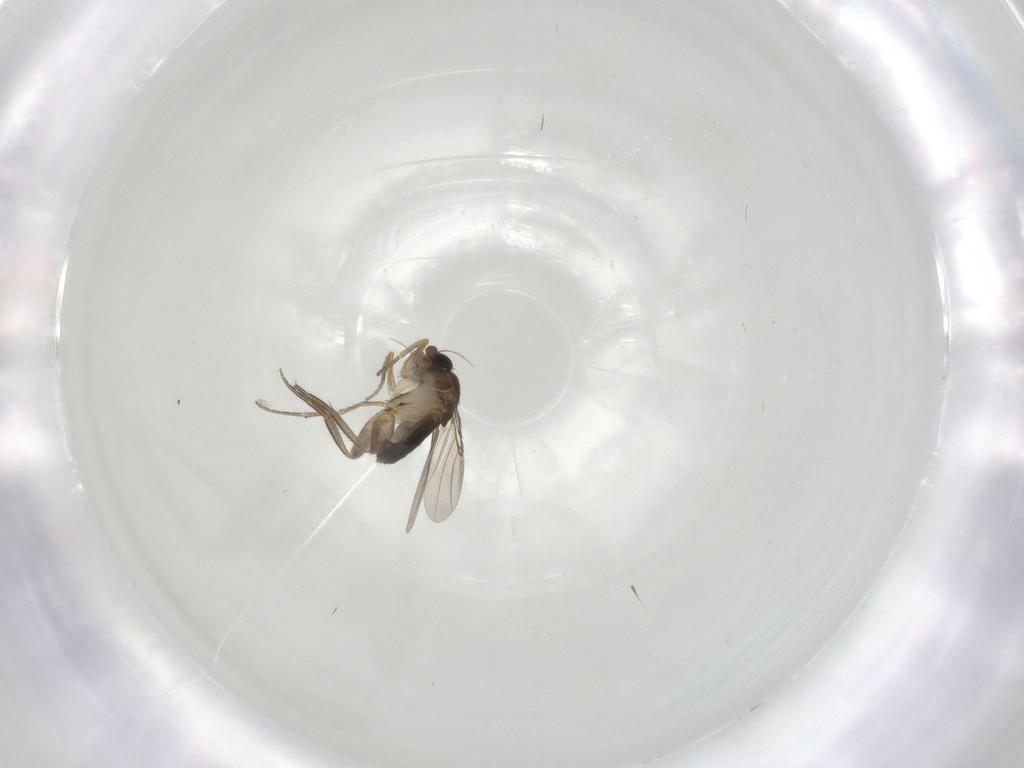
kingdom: Animalia
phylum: Arthropoda
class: Insecta
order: Diptera
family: Phoridae
